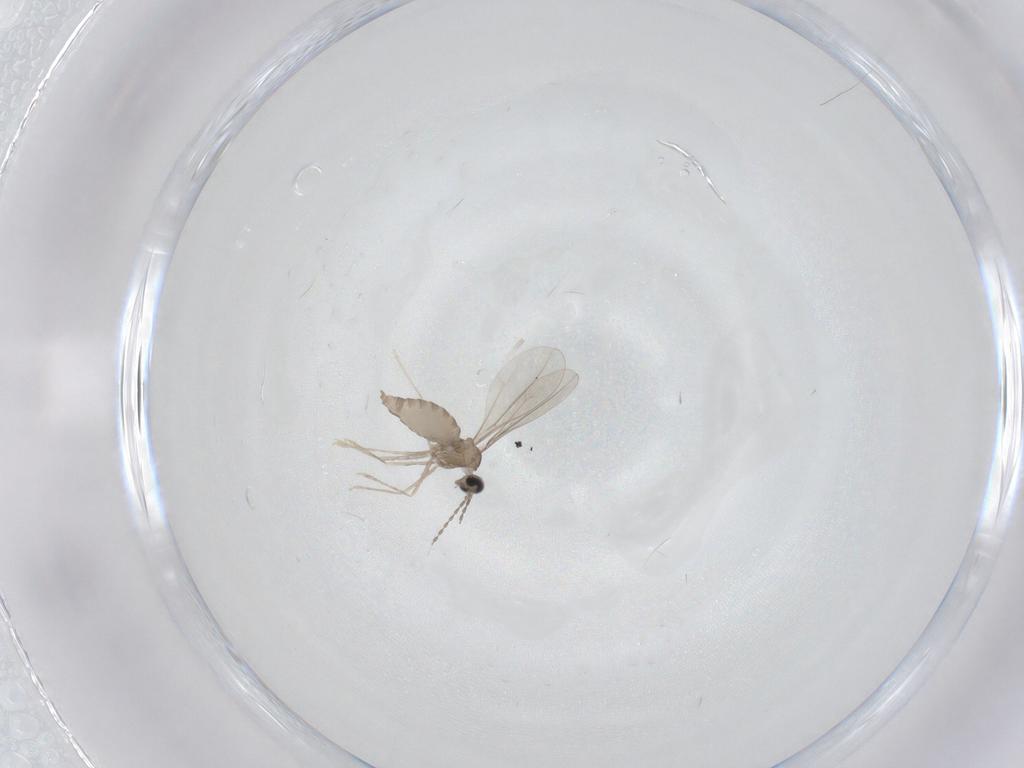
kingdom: Animalia
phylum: Arthropoda
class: Insecta
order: Diptera
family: Cecidomyiidae
